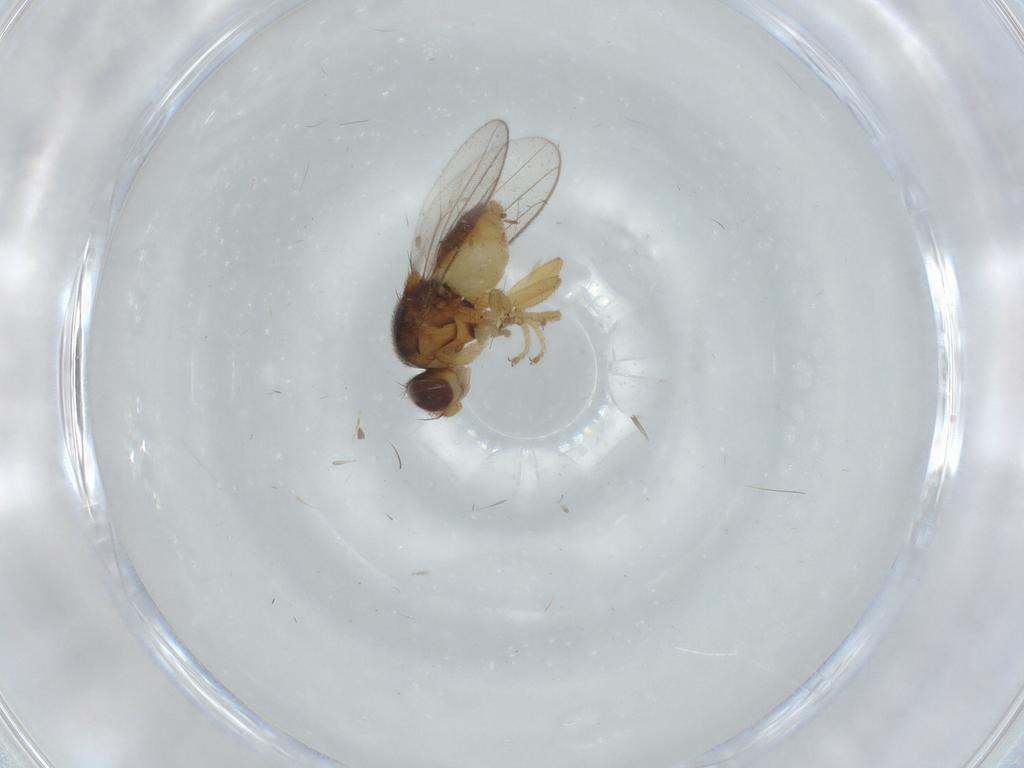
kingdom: Animalia
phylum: Arthropoda
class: Insecta
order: Diptera
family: Chloropidae
